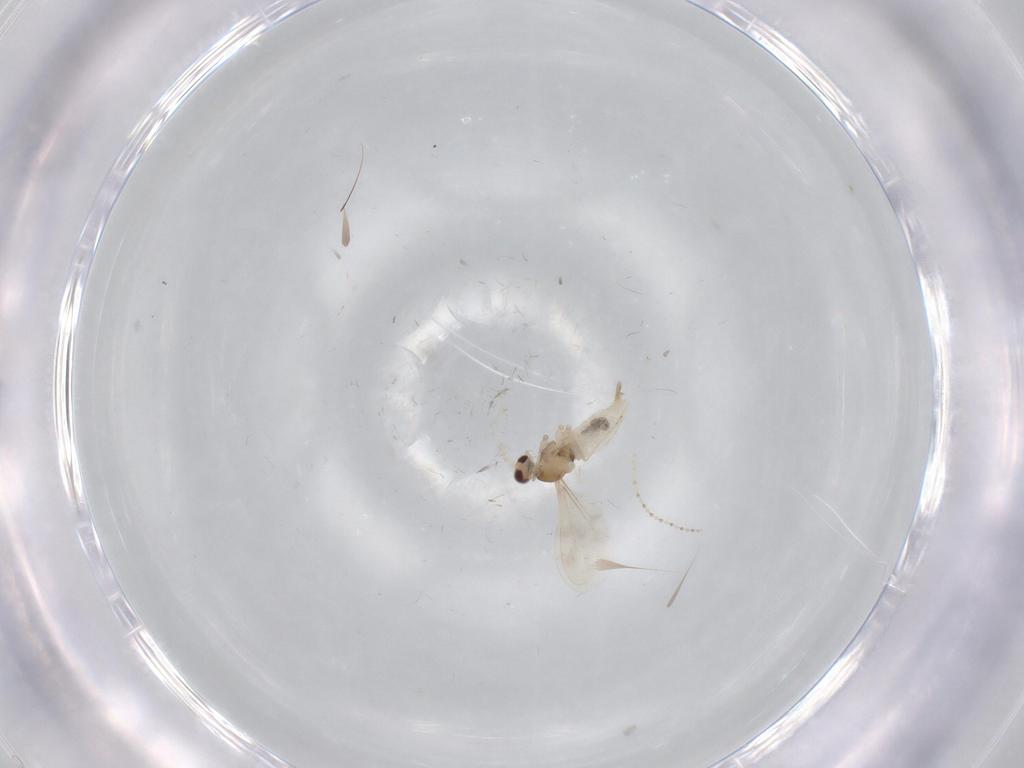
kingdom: Animalia
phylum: Arthropoda
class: Insecta
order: Diptera
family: Cecidomyiidae
